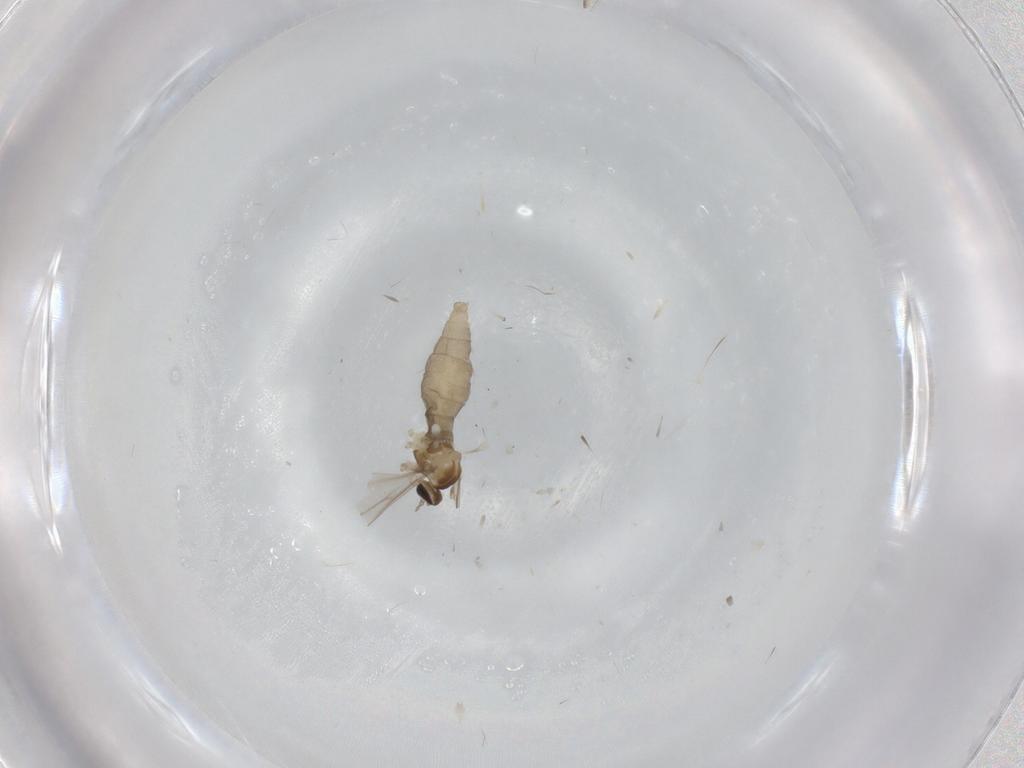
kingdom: Animalia
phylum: Arthropoda
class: Insecta
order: Diptera
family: Cecidomyiidae
